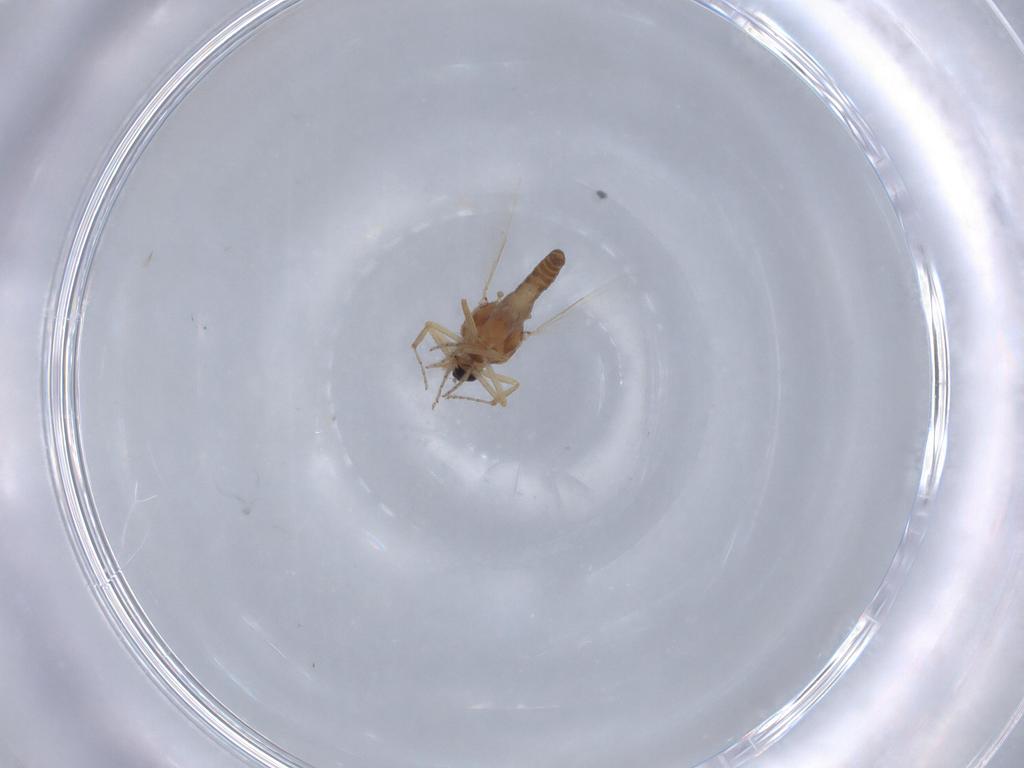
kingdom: Animalia
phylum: Arthropoda
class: Insecta
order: Diptera
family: Ceratopogonidae
